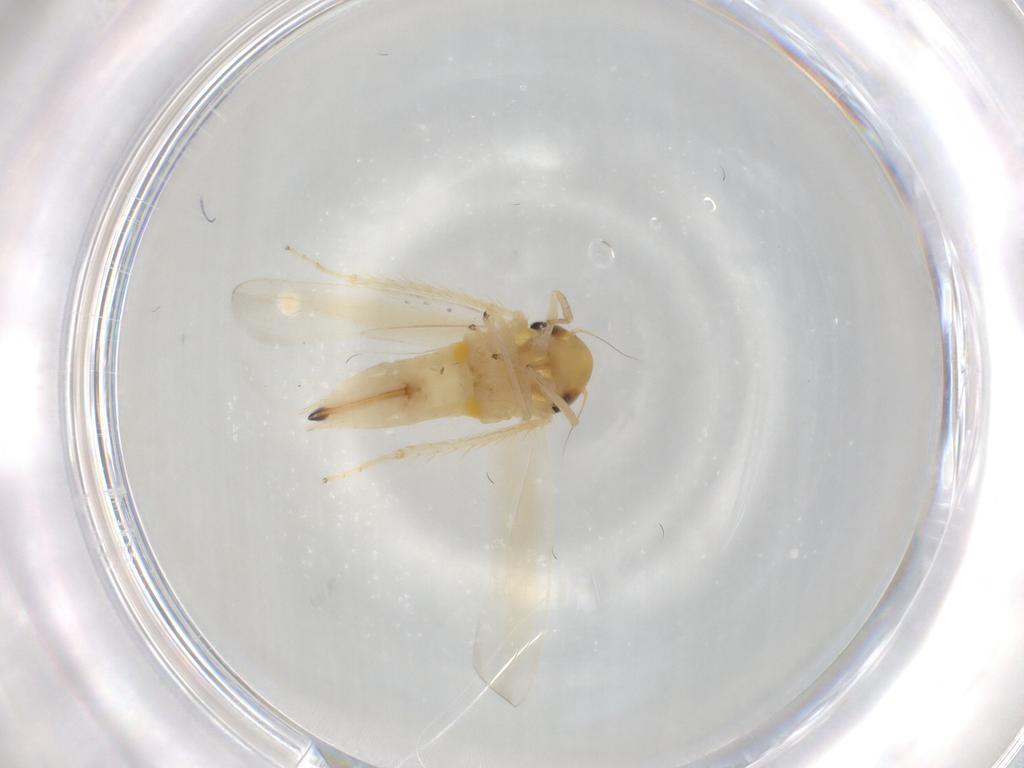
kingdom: Animalia
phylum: Arthropoda
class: Insecta
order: Hemiptera
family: Cicadellidae
